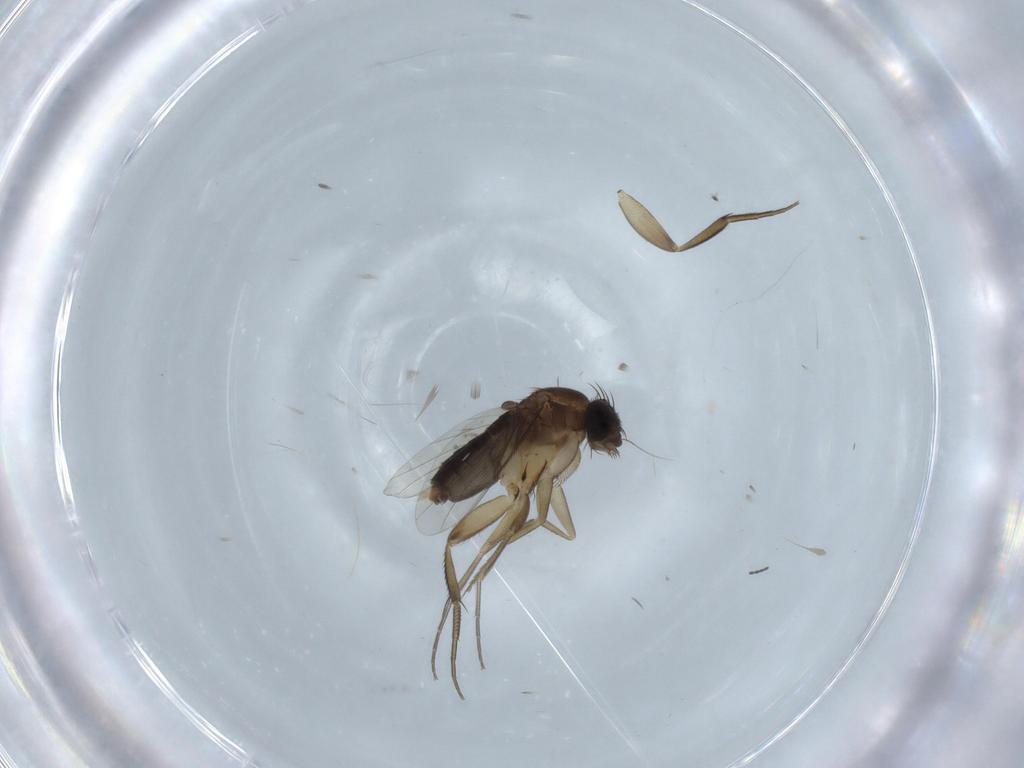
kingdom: Animalia
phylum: Arthropoda
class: Insecta
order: Diptera
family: Phoridae
